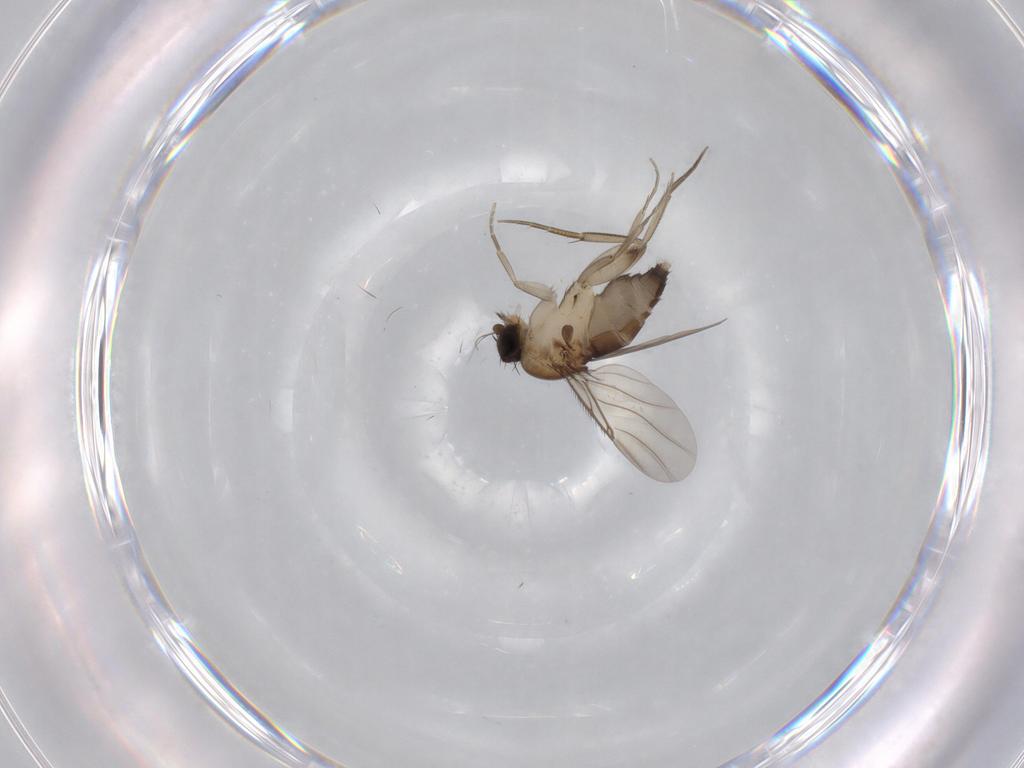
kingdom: Animalia
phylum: Arthropoda
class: Insecta
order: Diptera
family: Phoridae
